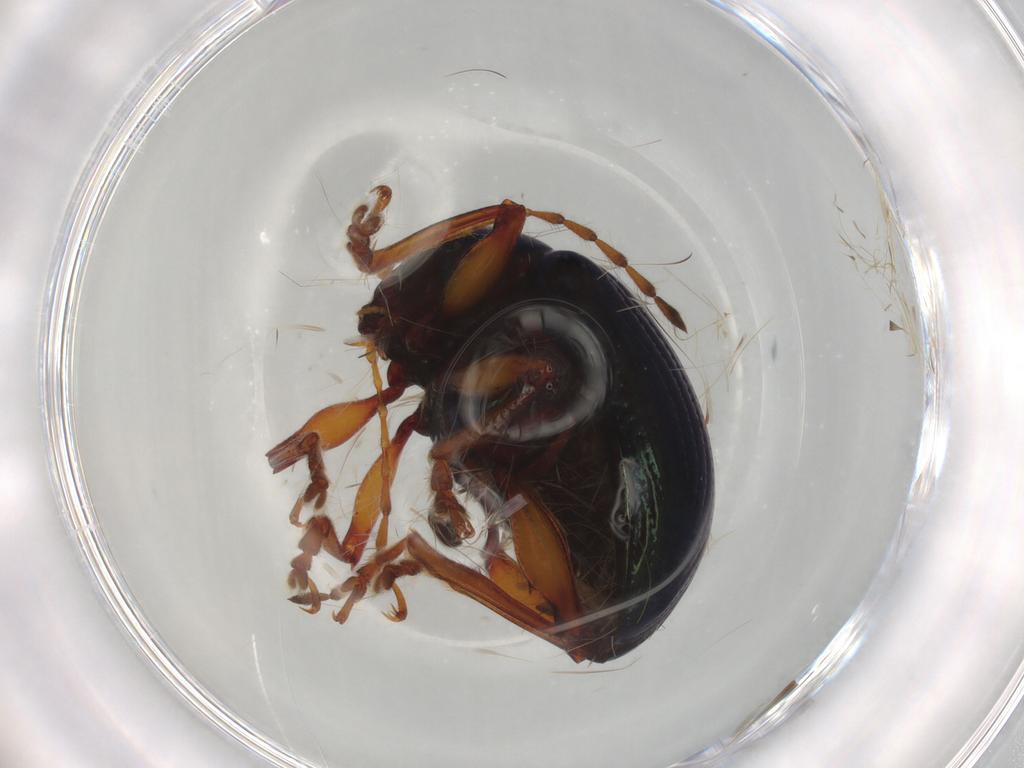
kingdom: Animalia
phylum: Arthropoda
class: Insecta
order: Coleoptera
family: Chrysomelidae
